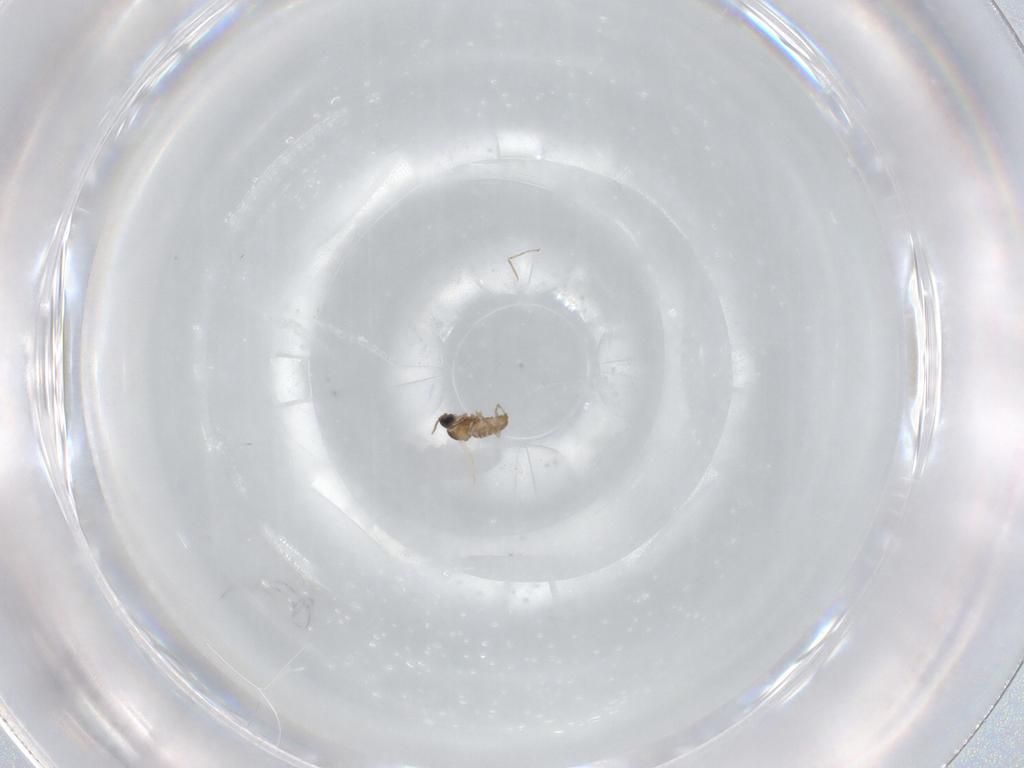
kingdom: Animalia
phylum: Arthropoda
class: Insecta
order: Diptera
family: Cecidomyiidae
